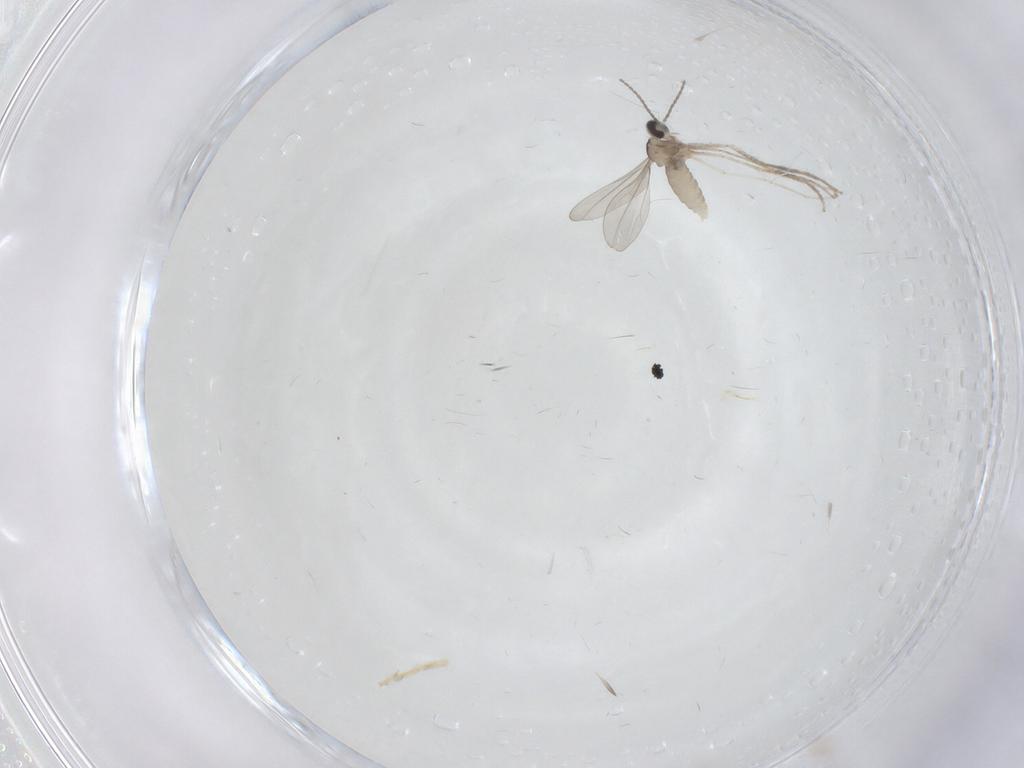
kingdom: Animalia
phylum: Arthropoda
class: Insecta
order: Diptera
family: Cecidomyiidae
